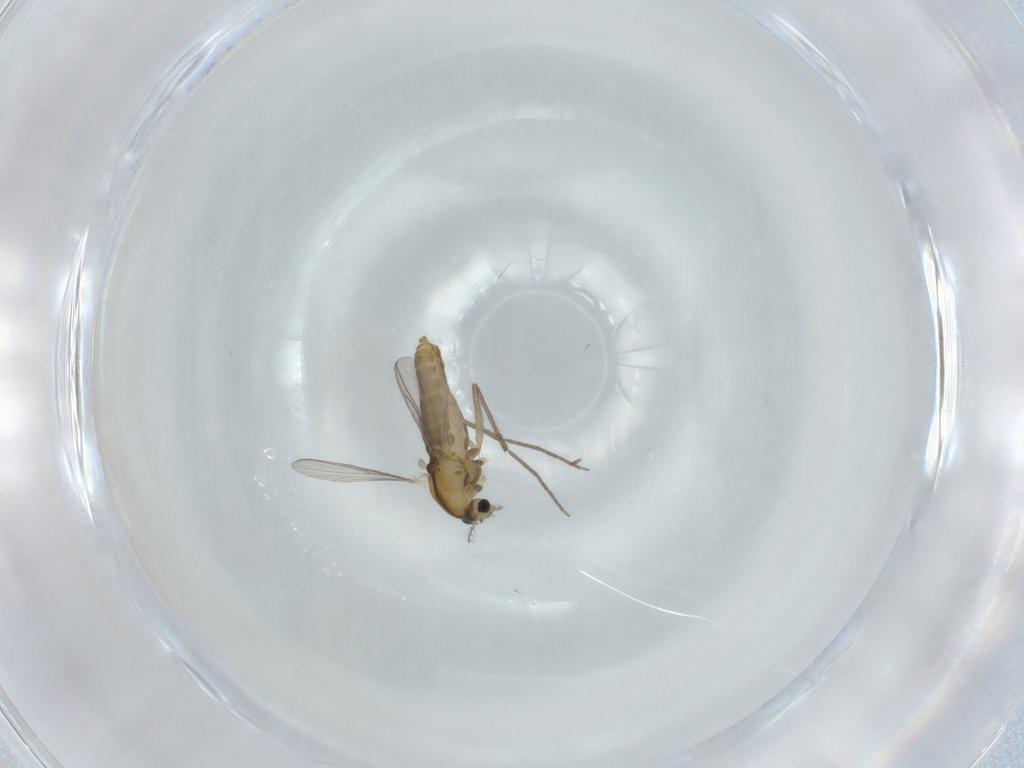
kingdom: Animalia
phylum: Arthropoda
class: Insecta
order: Diptera
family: Chironomidae
